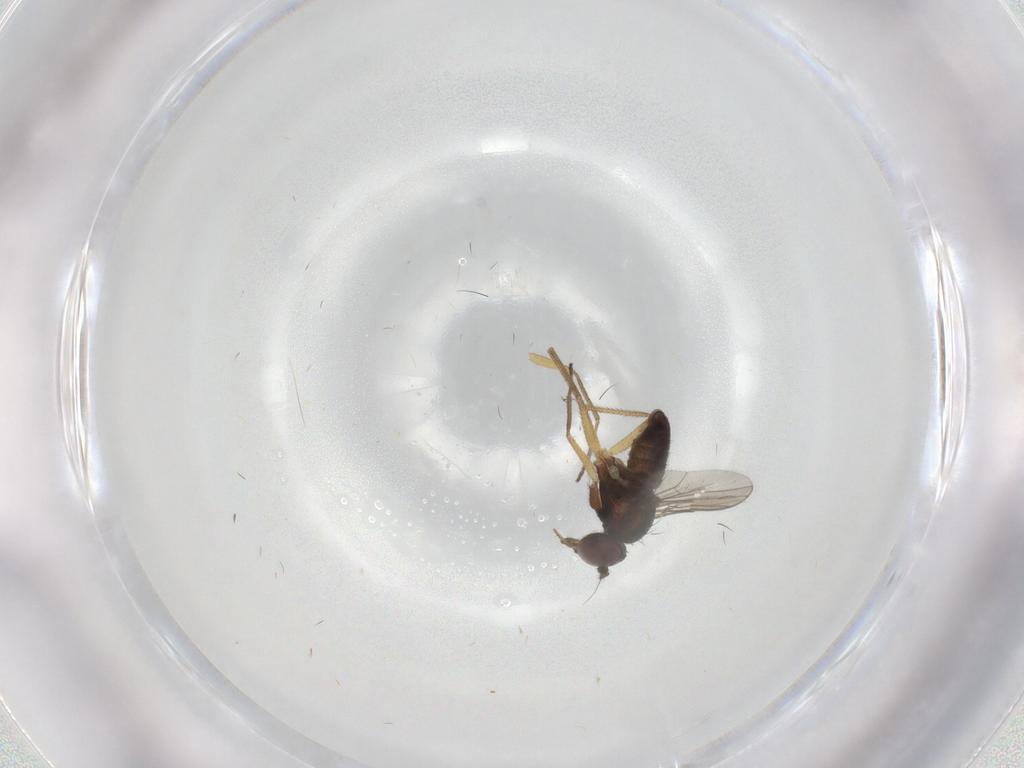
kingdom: Animalia
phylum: Arthropoda
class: Insecta
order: Diptera
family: Dolichopodidae
